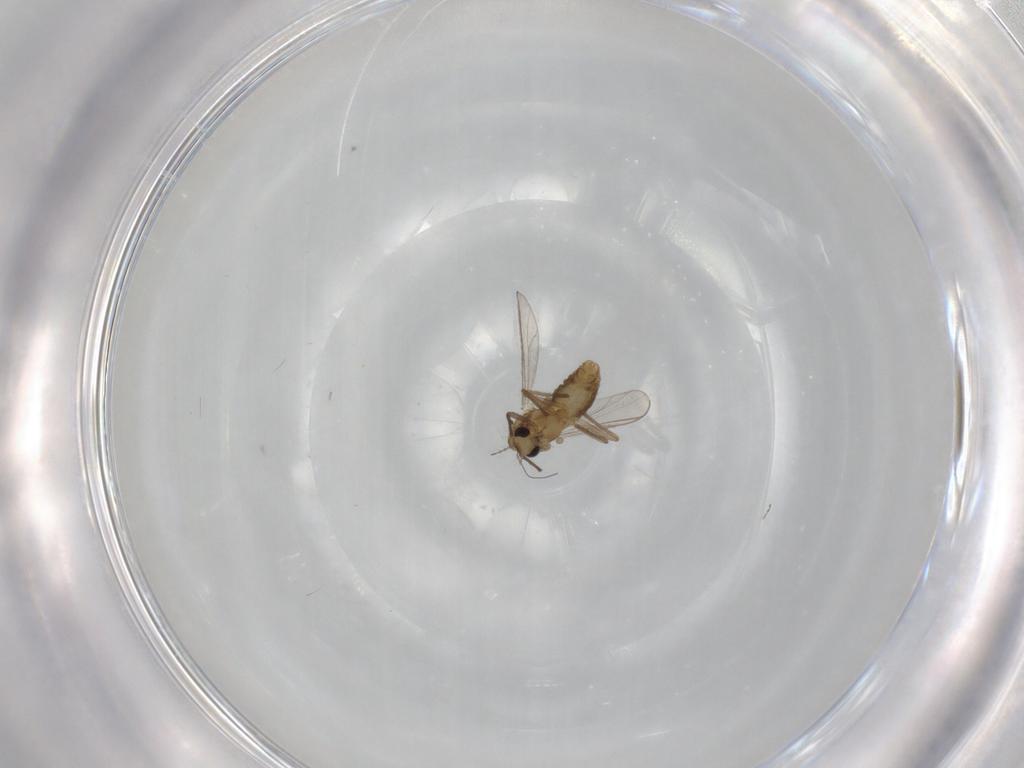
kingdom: Animalia
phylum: Arthropoda
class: Insecta
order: Diptera
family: Chironomidae
